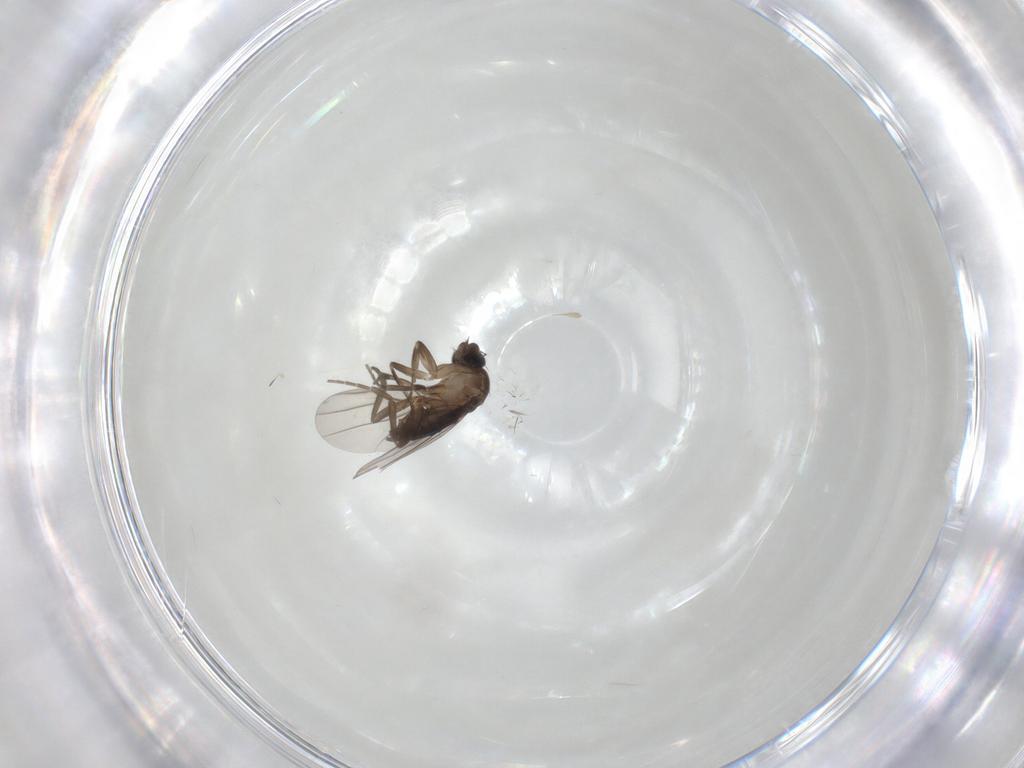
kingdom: Animalia
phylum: Arthropoda
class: Insecta
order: Diptera
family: Phoridae
